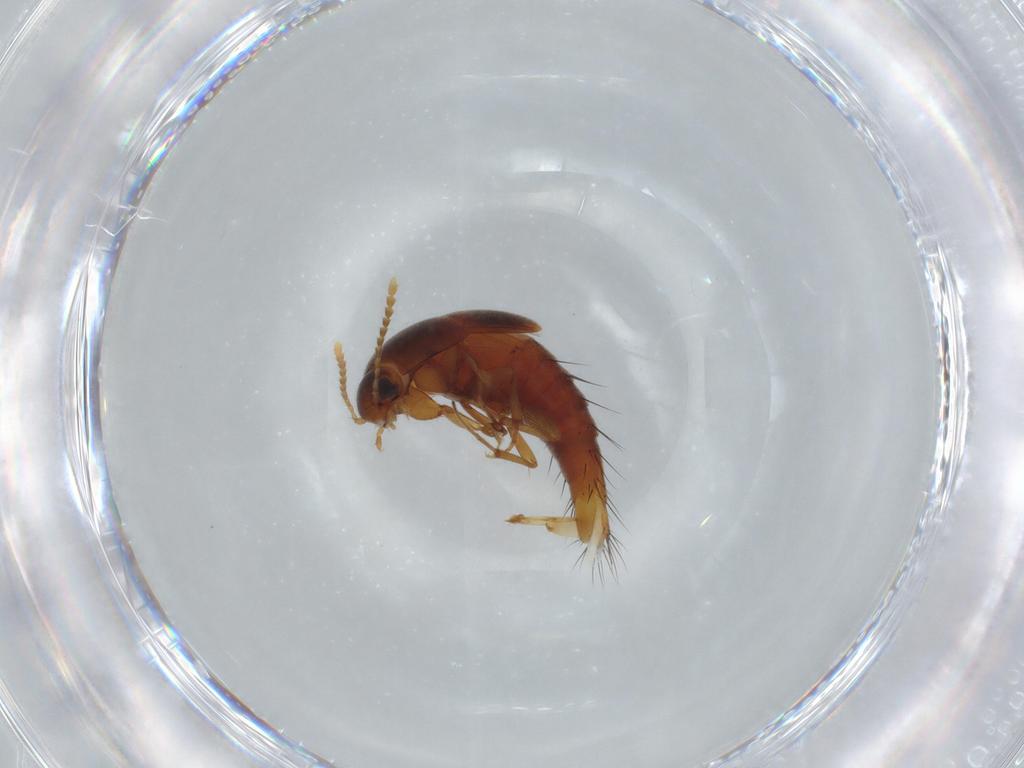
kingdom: Animalia
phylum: Arthropoda
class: Insecta
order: Coleoptera
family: Staphylinidae
